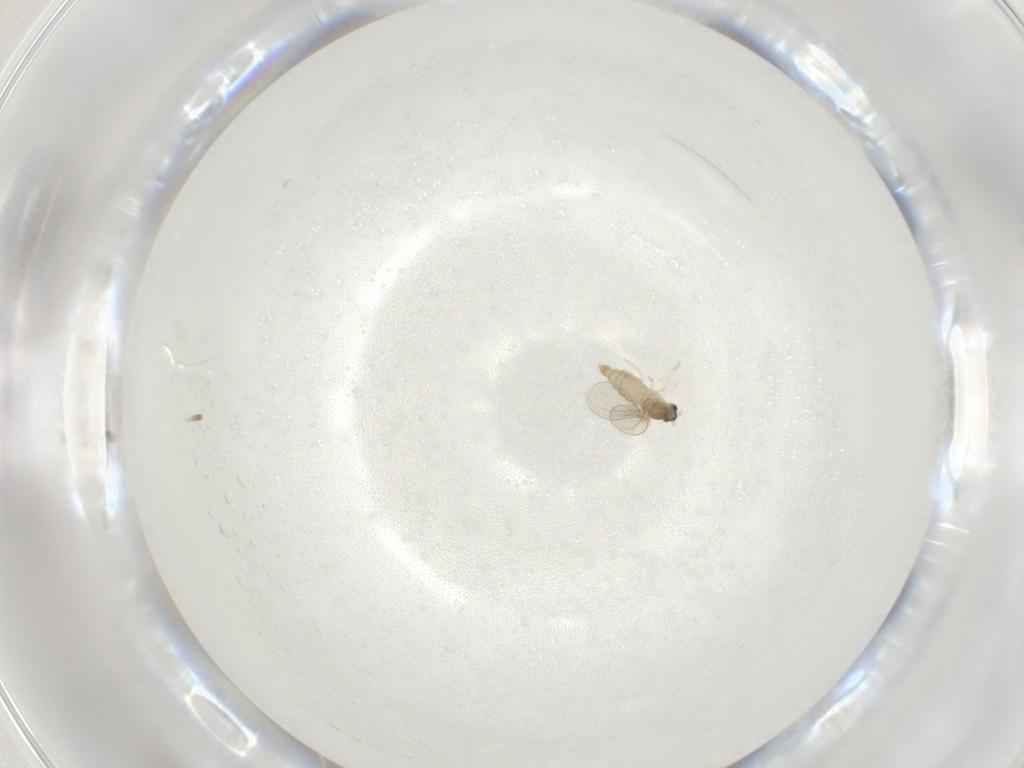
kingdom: Animalia
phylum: Arthropoda
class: Insecta
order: Diptera
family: Cecidomyiidae
